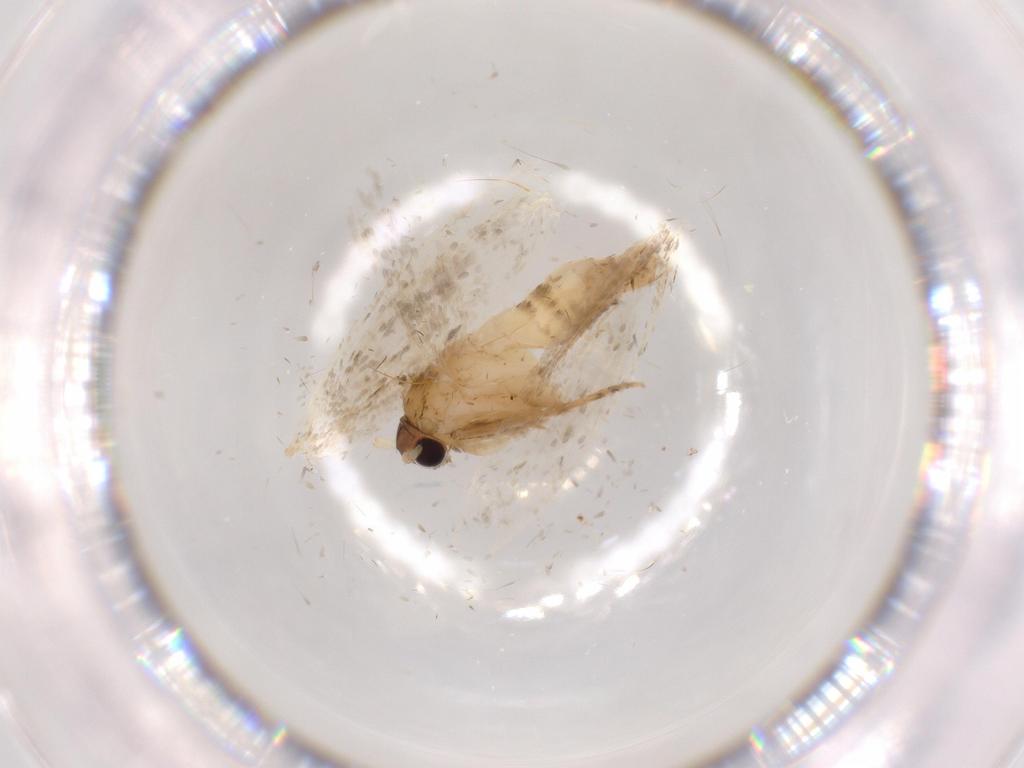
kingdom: Animalia
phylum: Arthropoda
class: Insecta
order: Lepidoptera
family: Tineidae
